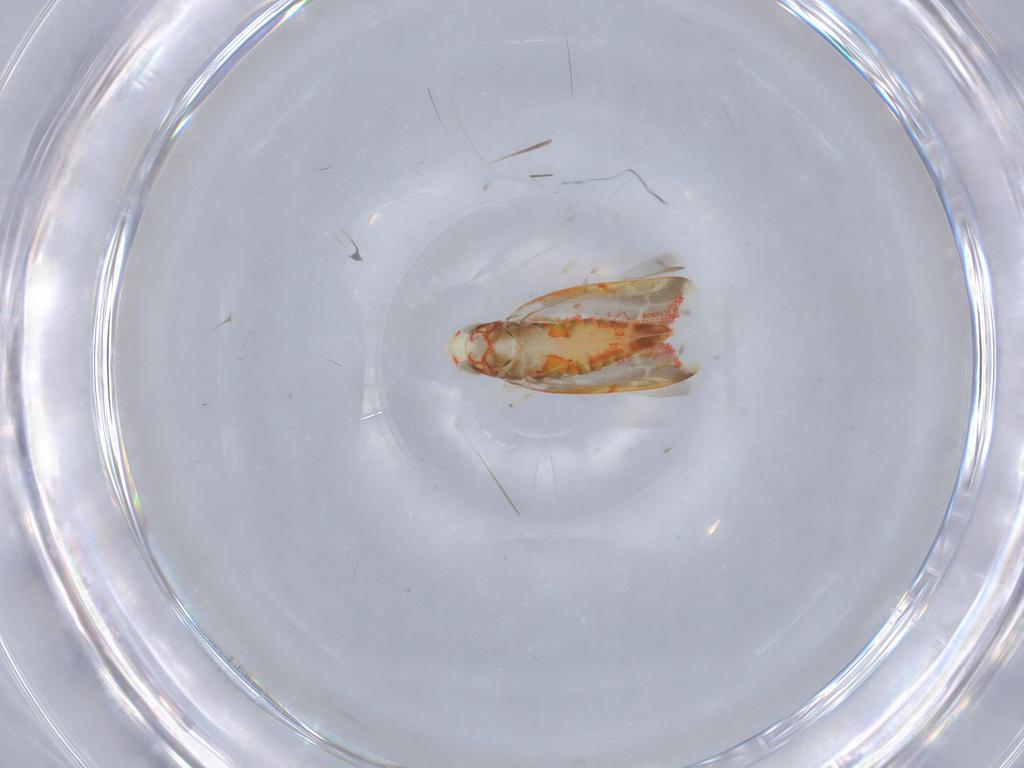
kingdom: Animalia
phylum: Arthropoda
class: Insecta
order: Hemiptera
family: Cicadellidae
